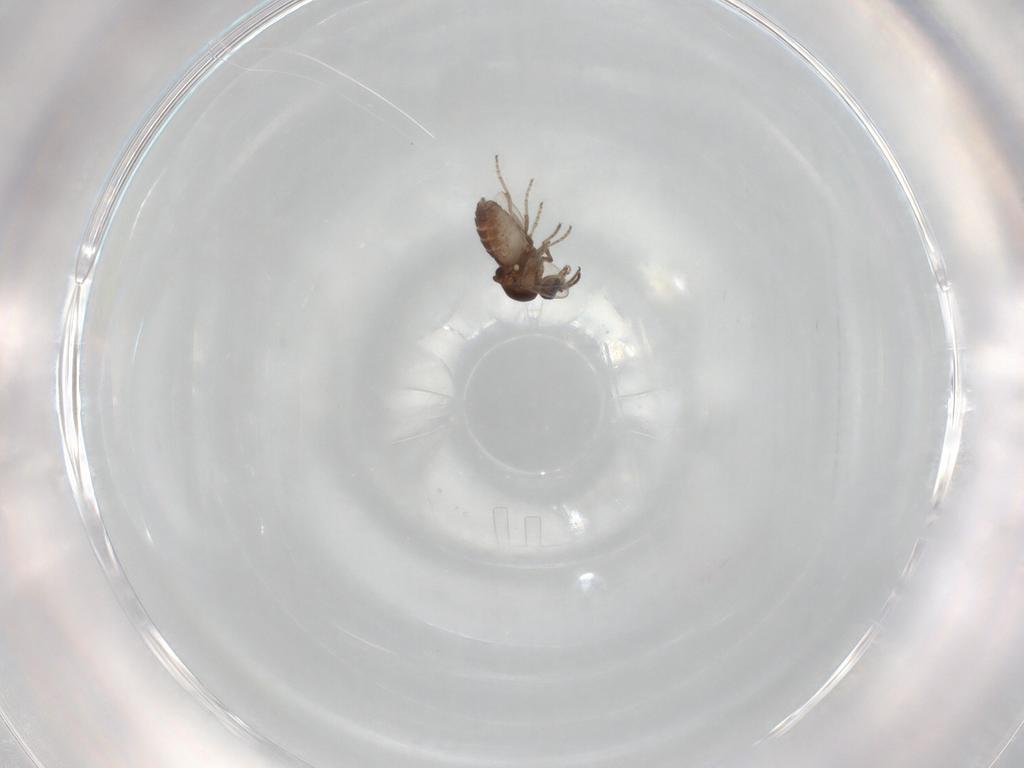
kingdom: Animalia
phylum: Arthropoda
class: Insecta
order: Diptera
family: Ceratopogonidae
